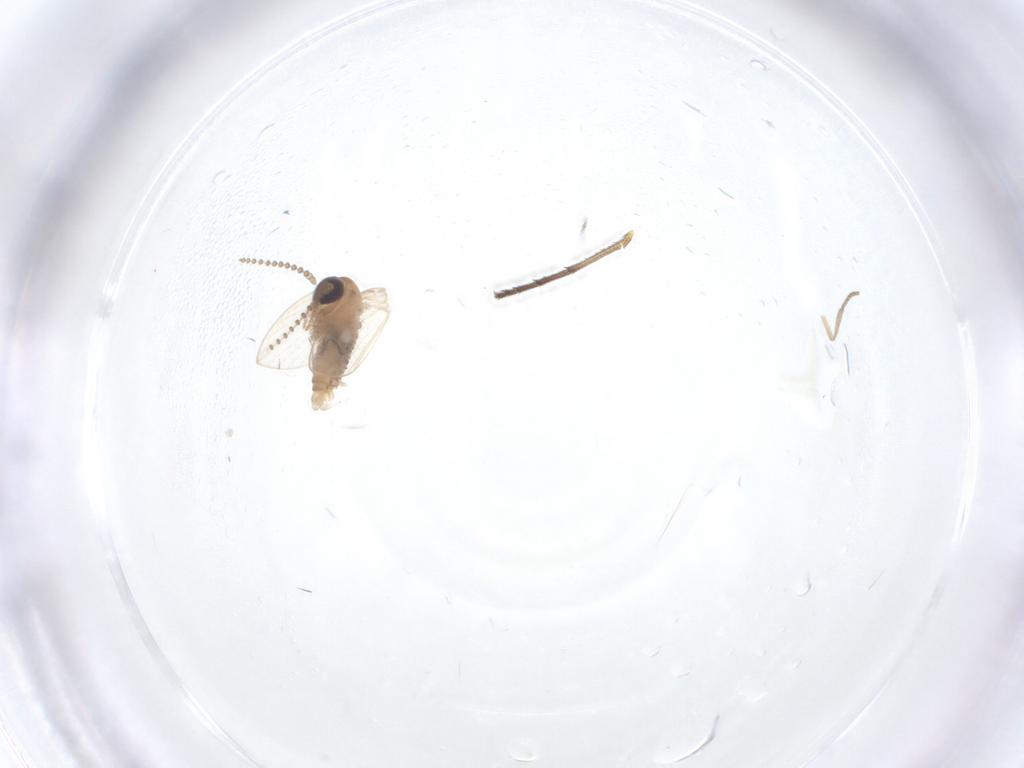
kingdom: Animalia
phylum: Arthropoda
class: Insecta
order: Diptera
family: Psychodidae
